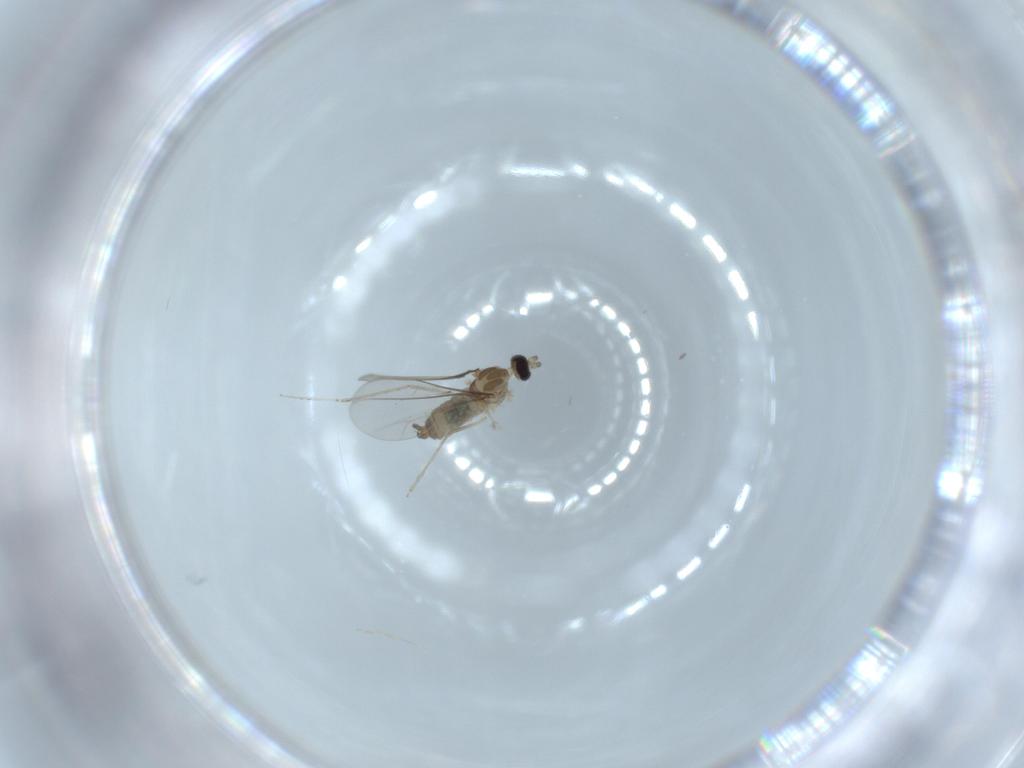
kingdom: Animalia
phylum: Arthropoda
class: Insecta
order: Diptera
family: Cecidomyiidae
